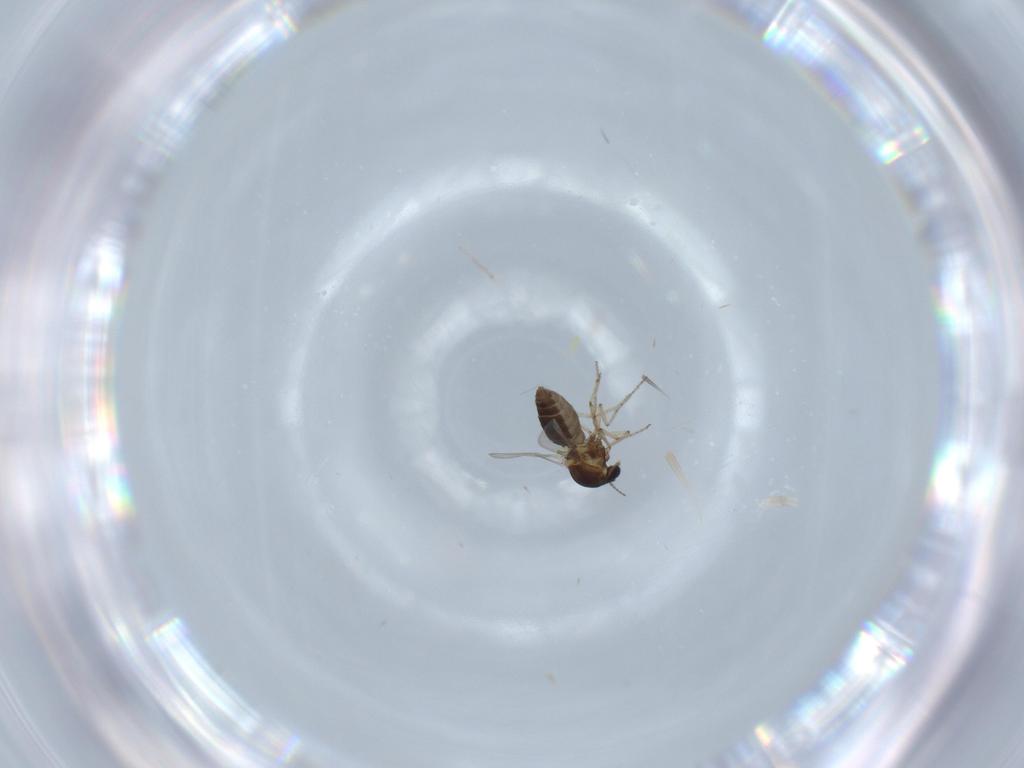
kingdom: Animalia
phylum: Arthropoda
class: Insecta
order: Diptera
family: Ceratopogonidae
